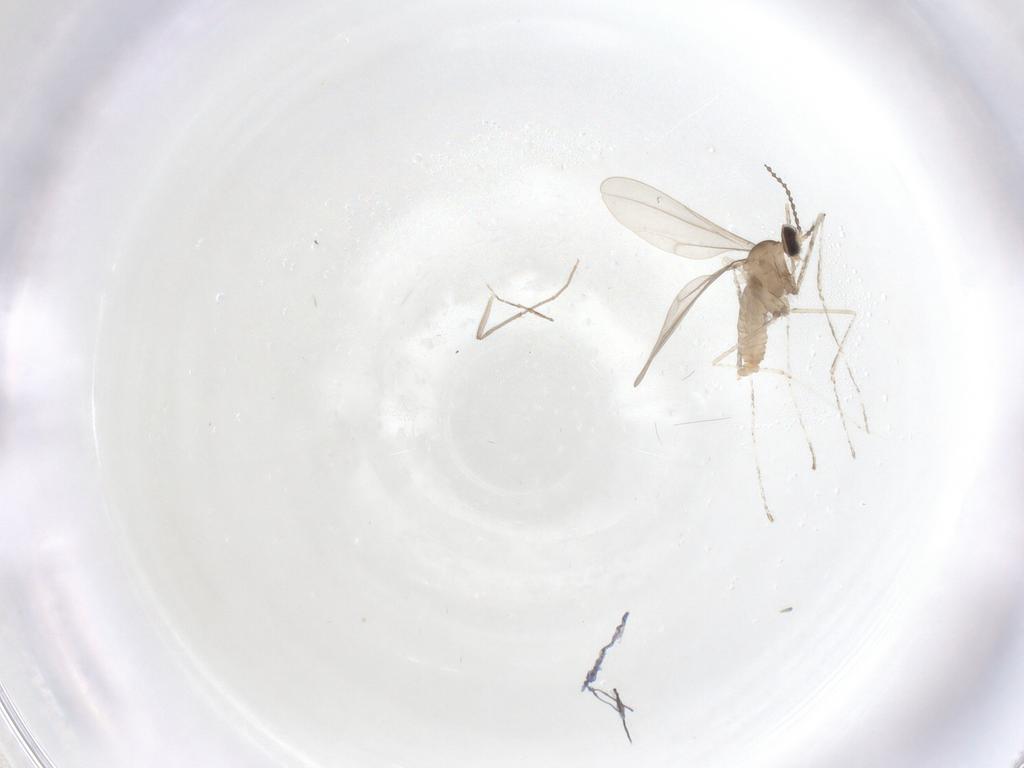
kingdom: Animalia
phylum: Arthropoda
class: Insecta
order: Diptera
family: Cecidomyiidae
